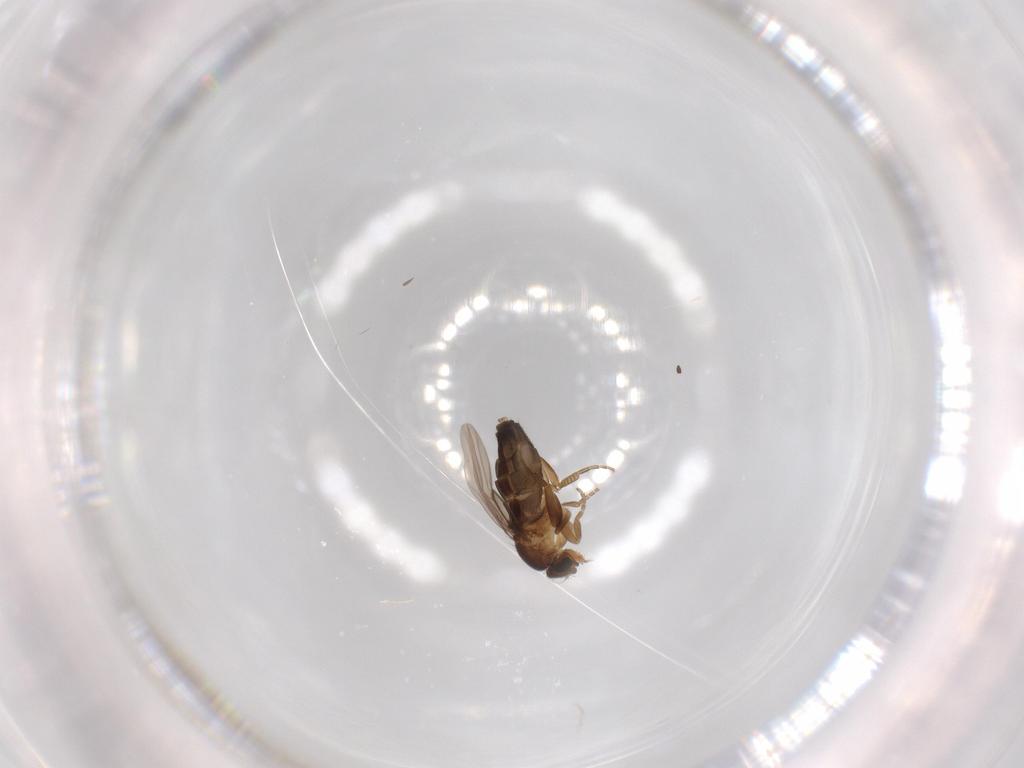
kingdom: Animalia
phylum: Arthropoda
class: Insecta
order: Diptera
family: Phoridae
